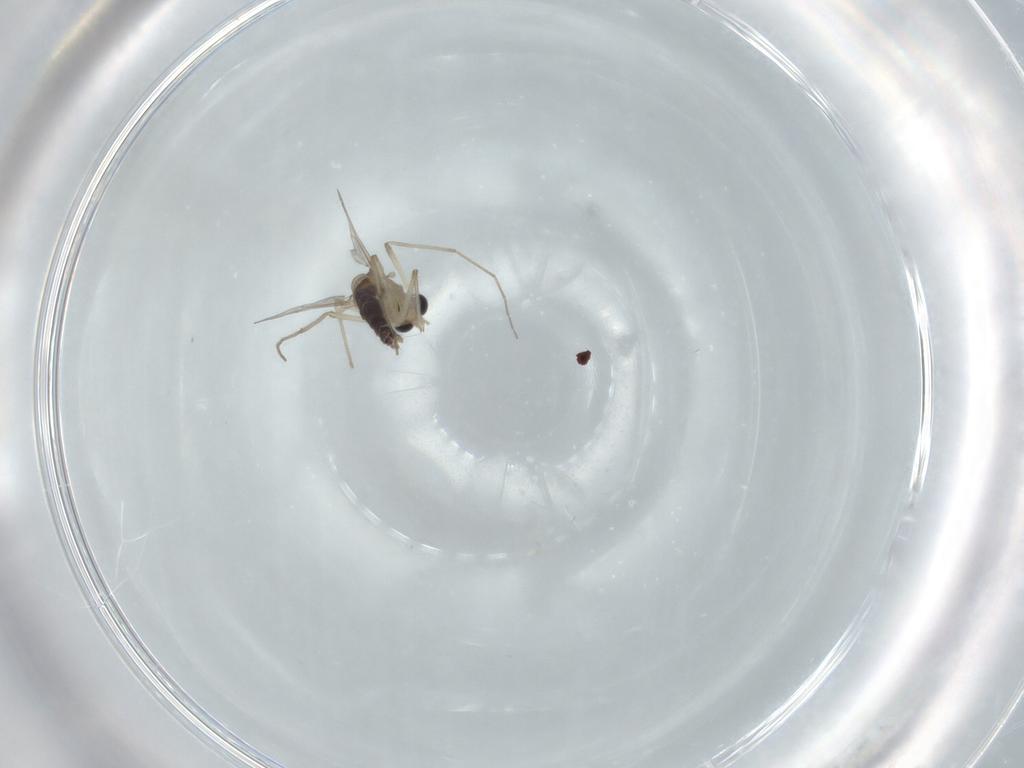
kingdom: Animalia
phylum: Arthropoda
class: Insecta
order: Diptera
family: Chironomidae
